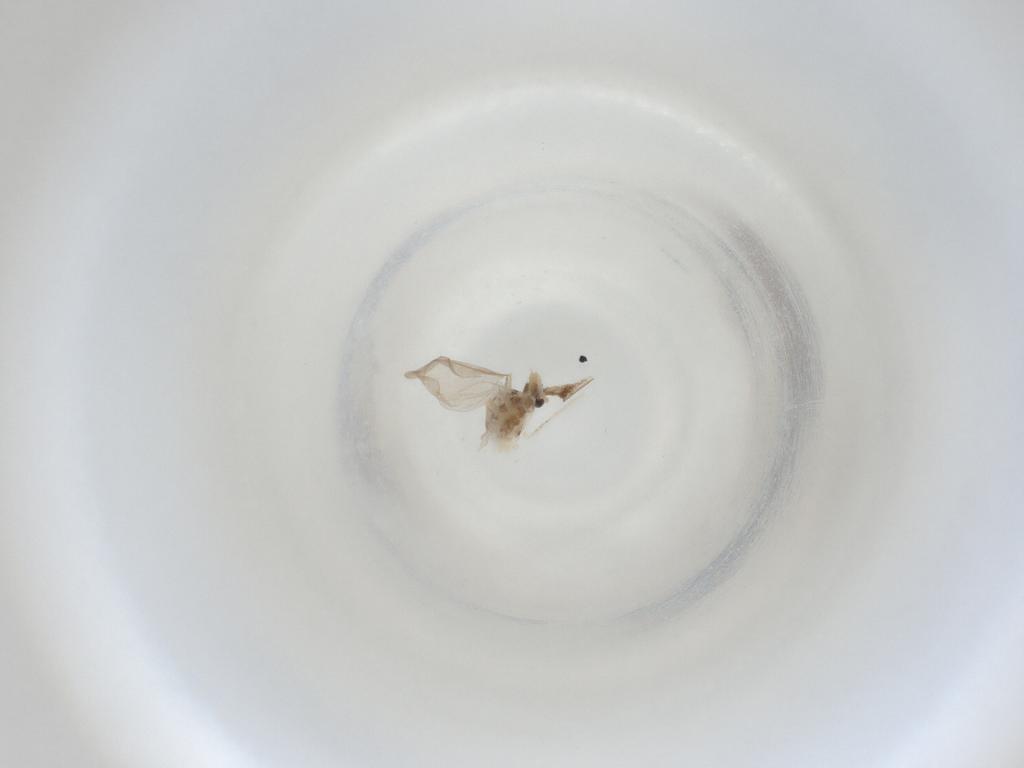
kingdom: Animalia
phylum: Arthropoda
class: Insecta
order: Diptera
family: Cecidomyiidae
